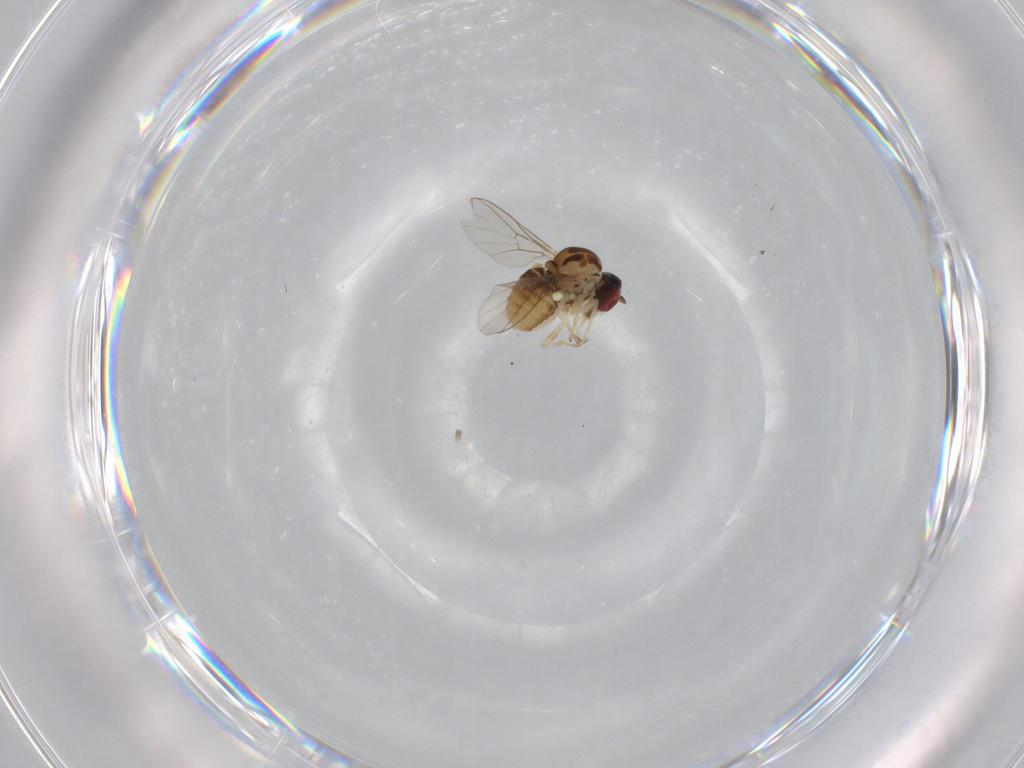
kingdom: Animalia
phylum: Arthropoda
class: Insecta
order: Diptera
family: Bombyliidae
